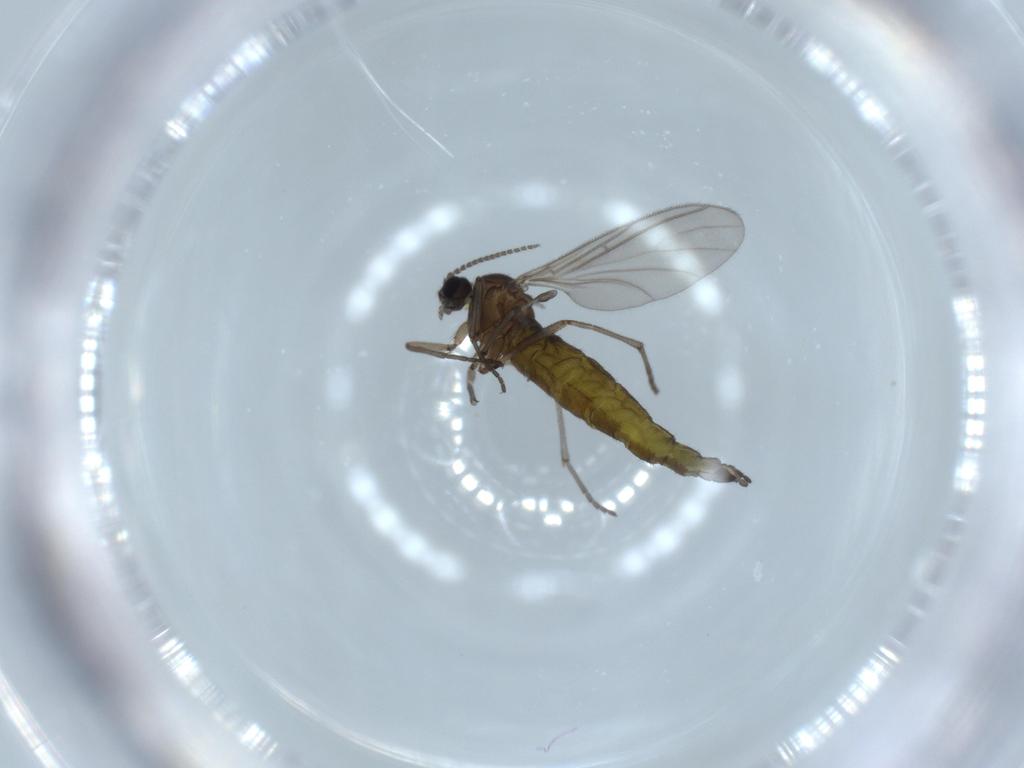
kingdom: Animalia
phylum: Arthropoda
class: Insecta
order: Diptera
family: Sciaridae
